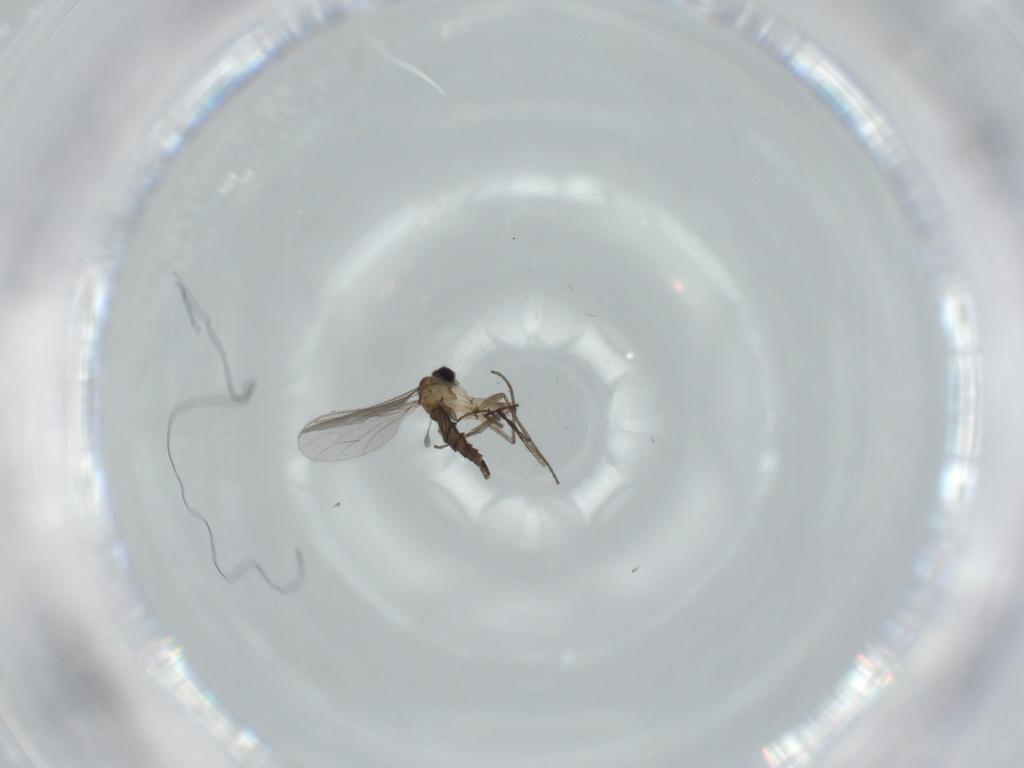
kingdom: Animalia
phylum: Arthropoda
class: Insecta
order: Diptera
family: Sciaridae
